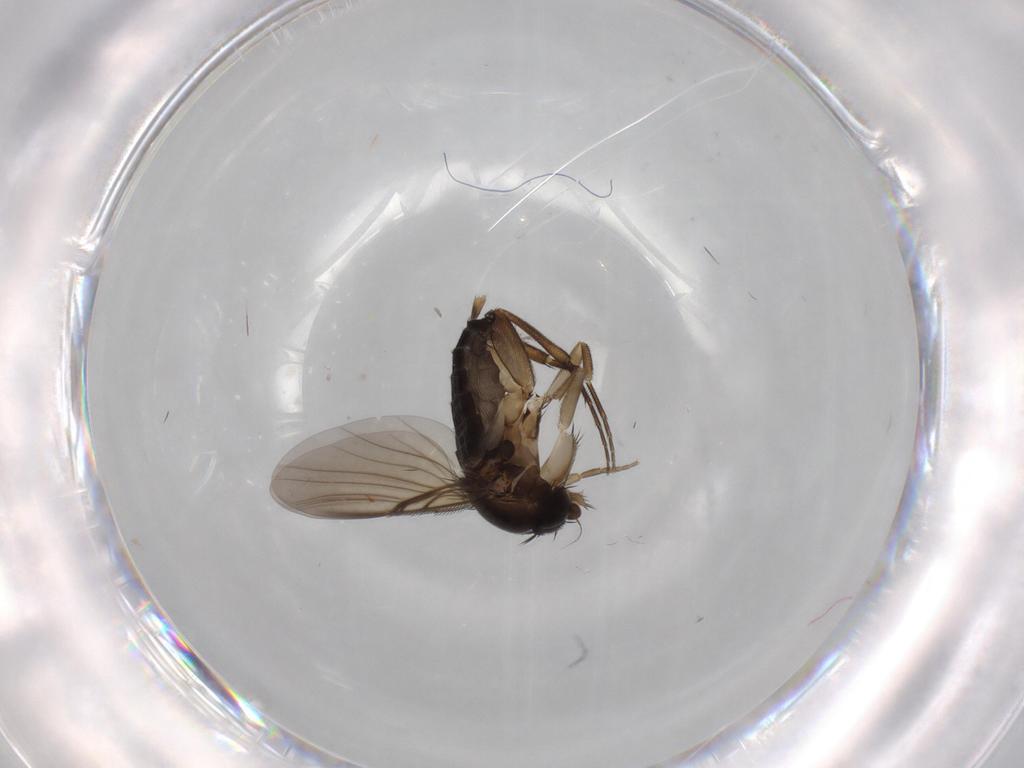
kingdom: Animalia
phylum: Arthropoda
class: Insecta
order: Diptera
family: Phoridae
